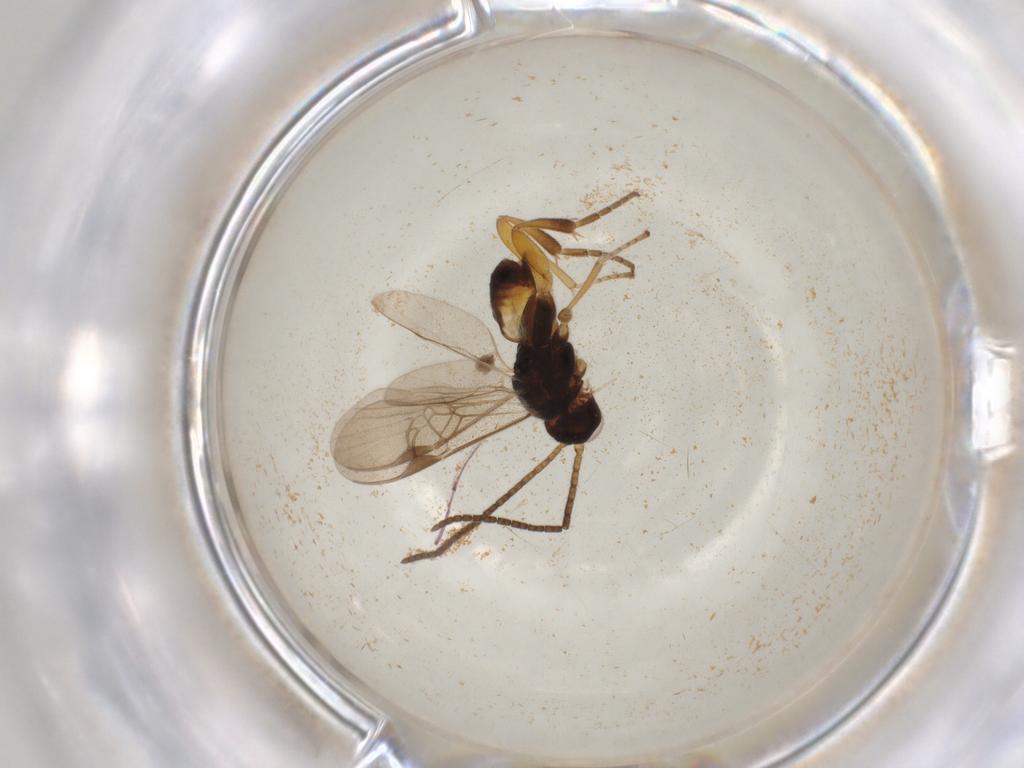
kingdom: Animalia
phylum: Arthropoda
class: Insecta
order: Hymenoptera
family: Braconidae
